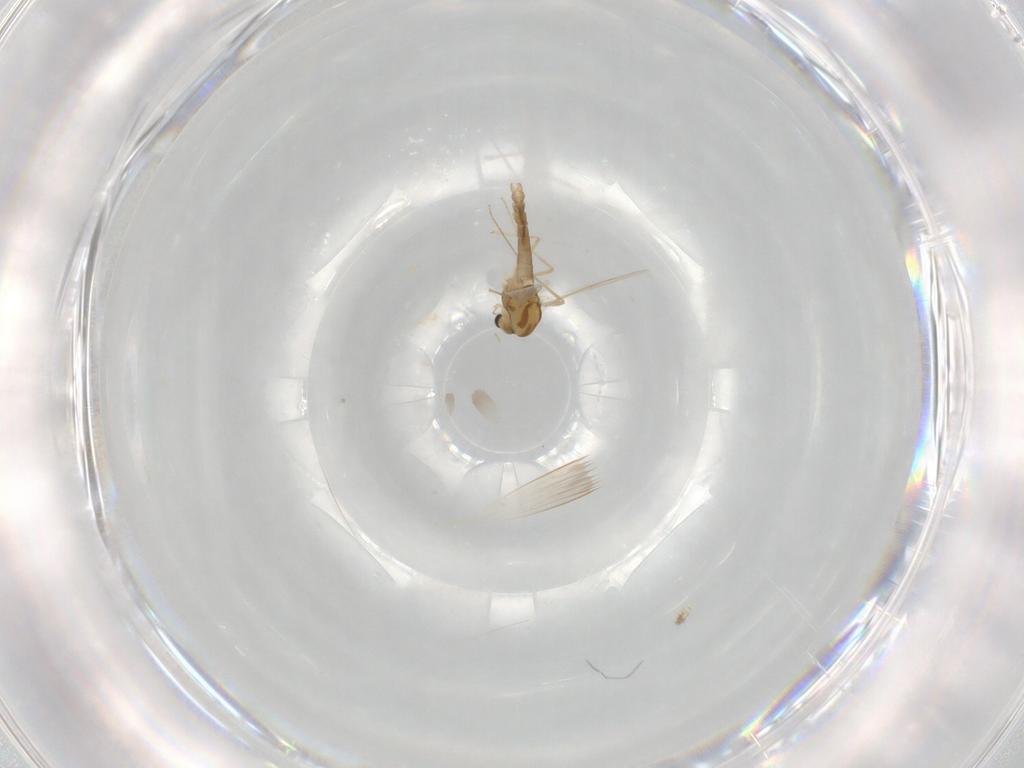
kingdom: Animalia
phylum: Arthropoda
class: Insecta
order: Diptera
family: Chironomidae
